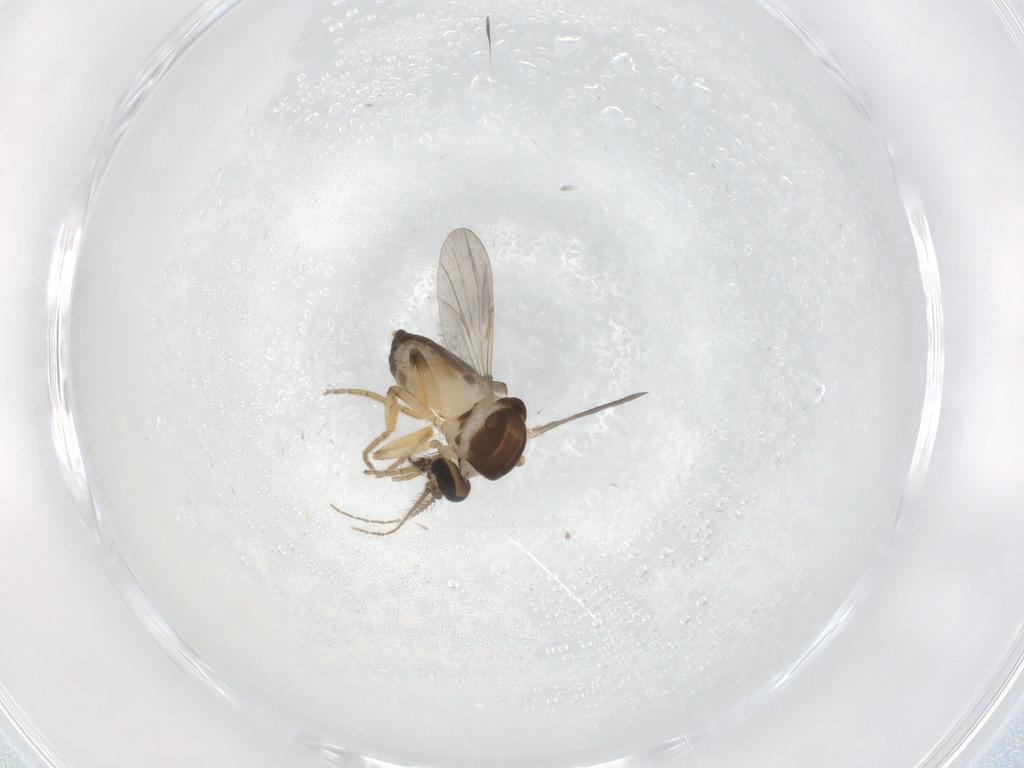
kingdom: Animalia
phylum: Arthropoda
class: Insecta
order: Diptera
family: Ceratopogonidae
